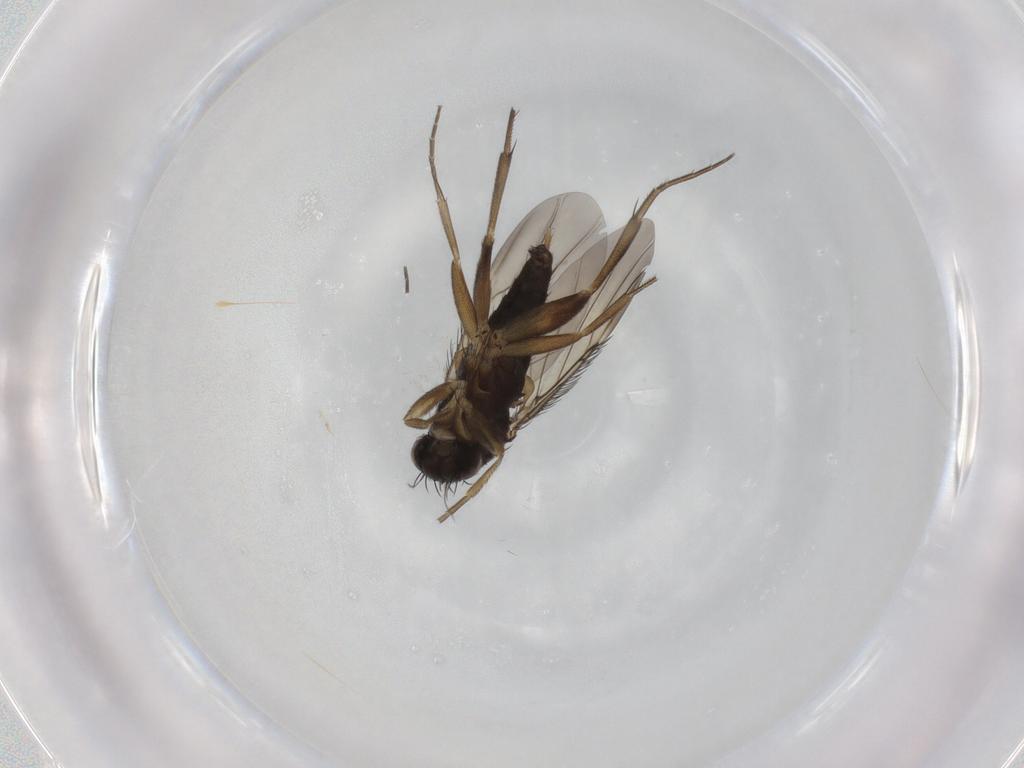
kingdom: Animalia
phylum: Arthropoda
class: Insecta
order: Diptera
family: Phoridae
